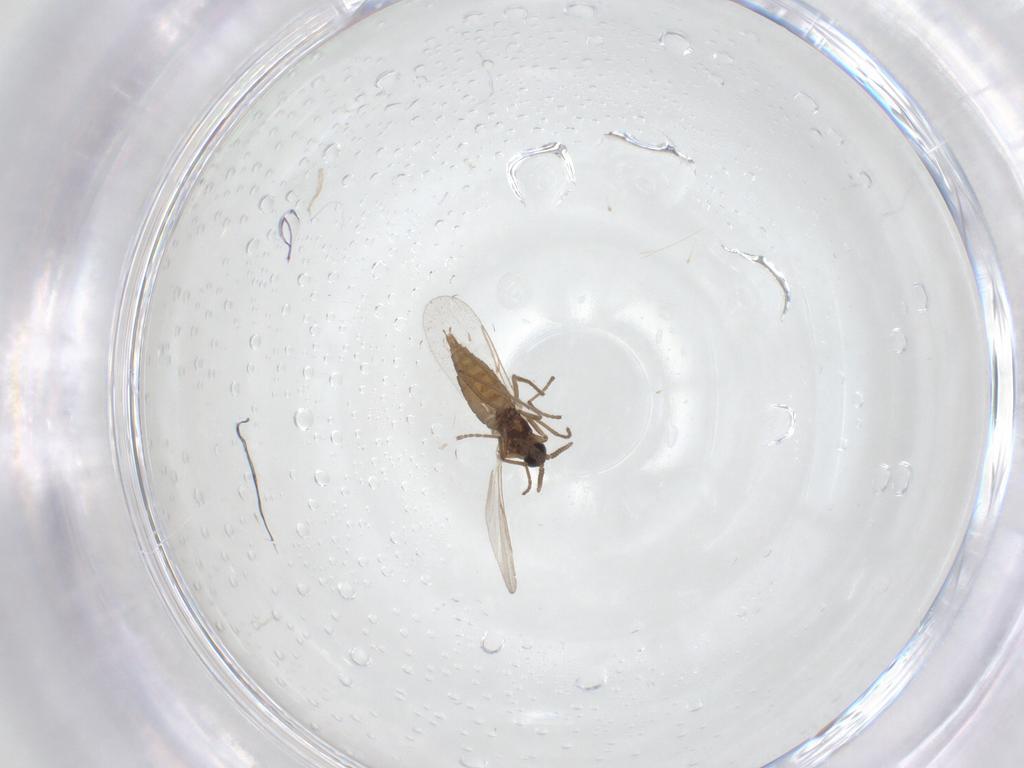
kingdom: Animalia
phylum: Arthropoda
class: Insecta
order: Diptera
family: Cecidomyiidae
